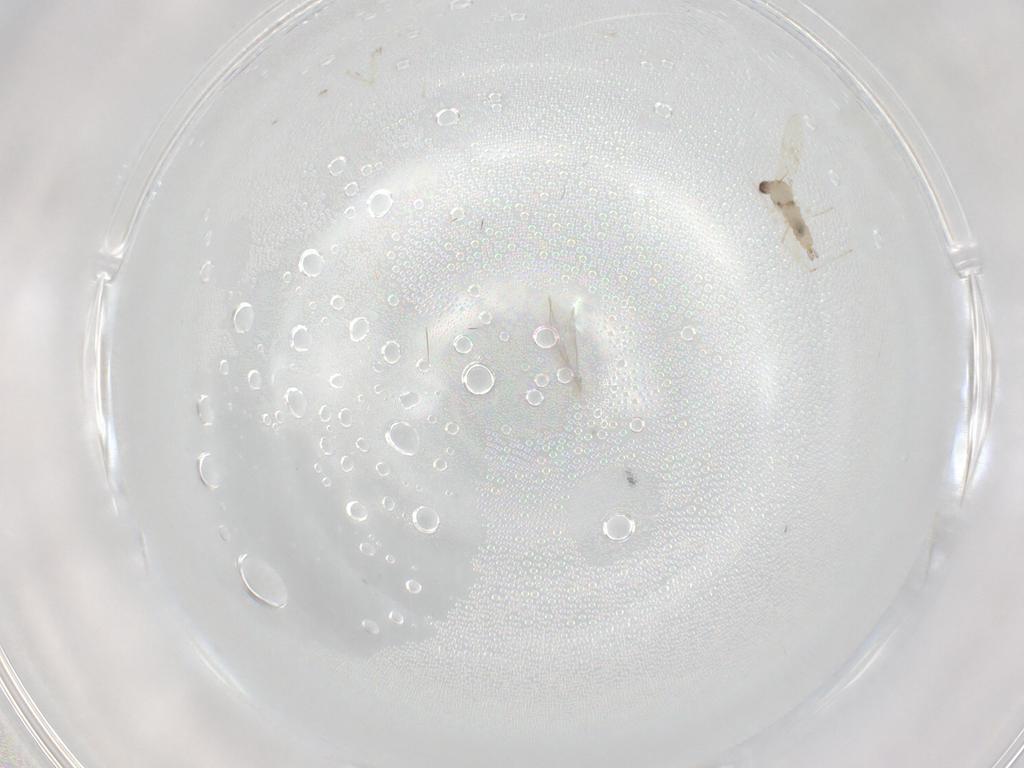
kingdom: Animalia
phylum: Arthropoda
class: Insecta
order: Diptera
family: Cecidomyiidae
